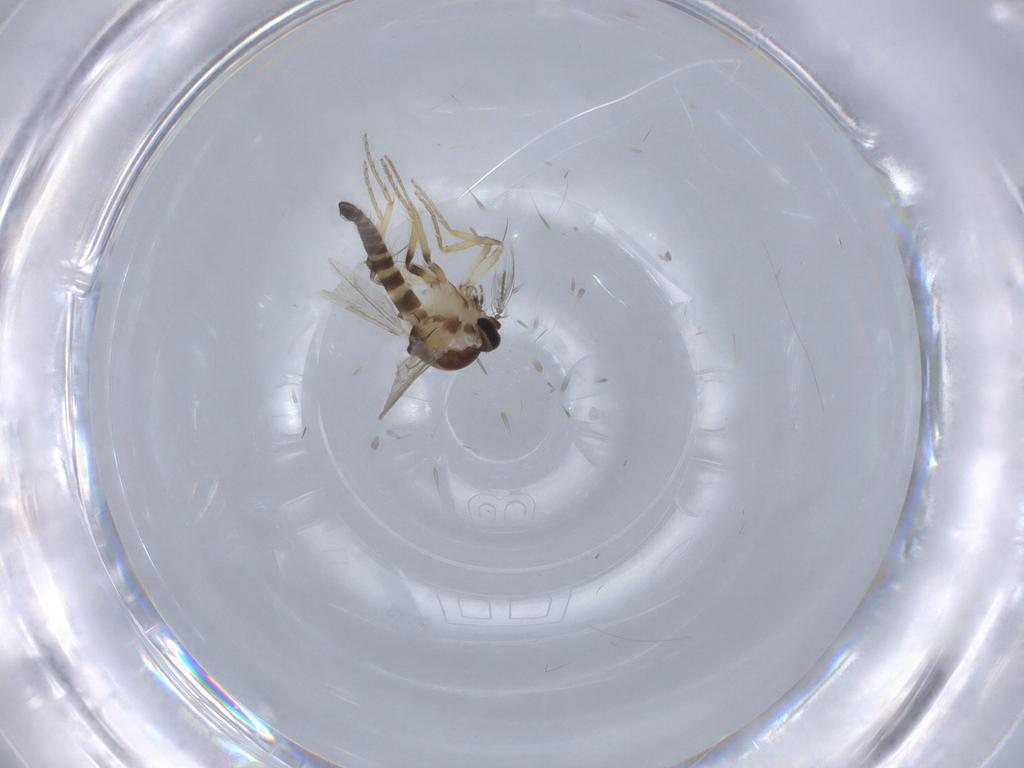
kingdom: Animalia
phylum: Arthropoda
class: Insecta
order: Diptera
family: Ceratopogonidae
